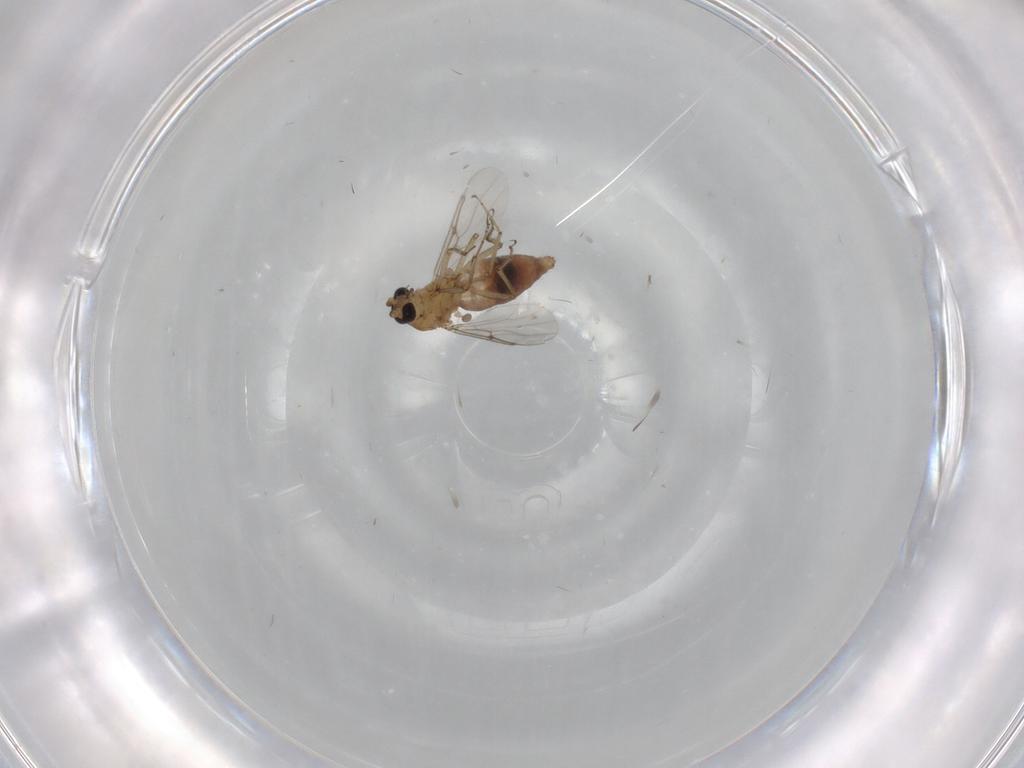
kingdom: Animalia
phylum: Arthropoda
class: Insecta
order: Diptera
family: Ceratopogonidae
